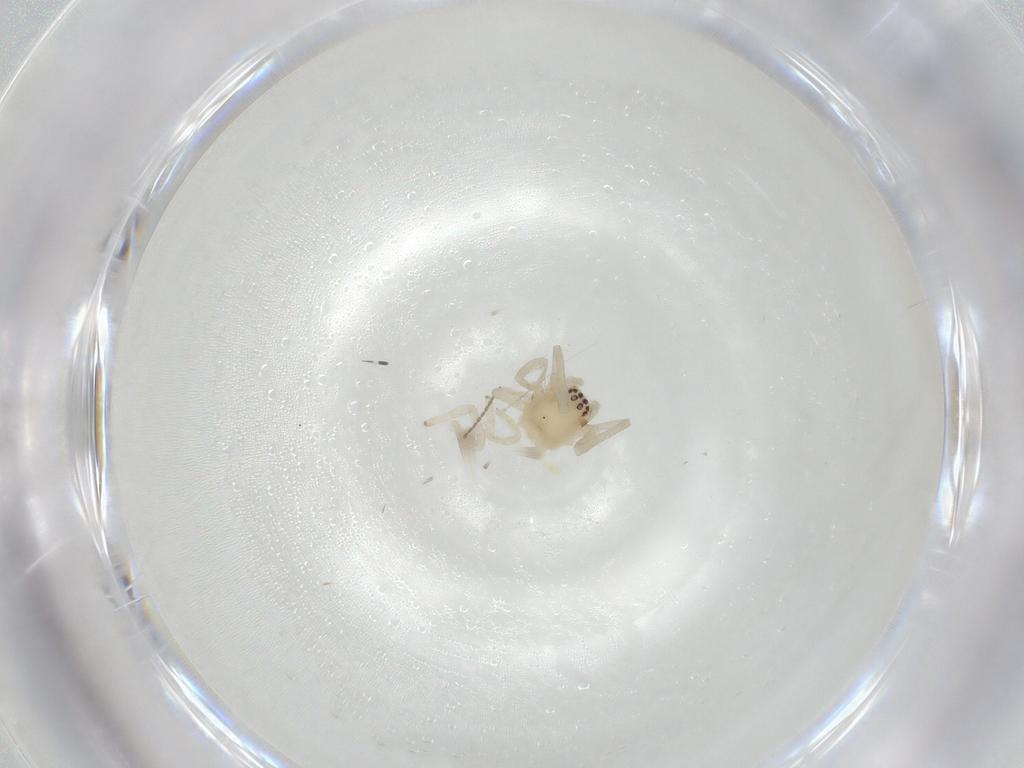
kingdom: Animalia
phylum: Arthropoda
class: Arachnida
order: Araneae
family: Cheiracanthiidae
